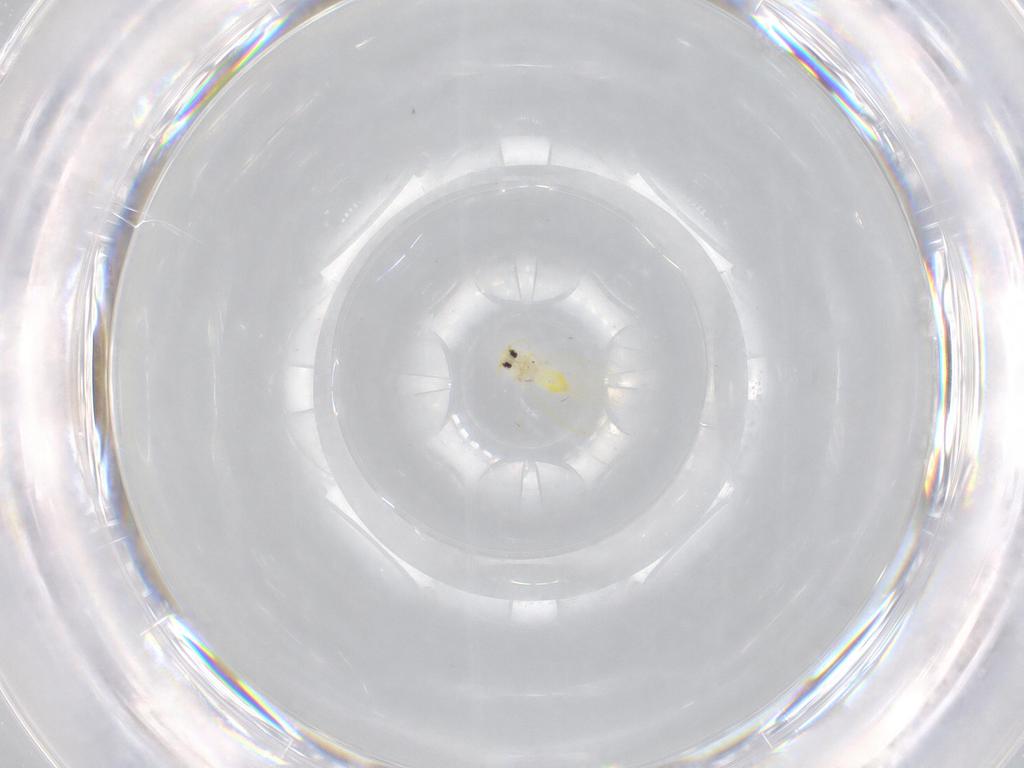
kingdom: Animalia
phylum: Arthropoda
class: Insecta
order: Hemiptera
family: Aleyrodidae
